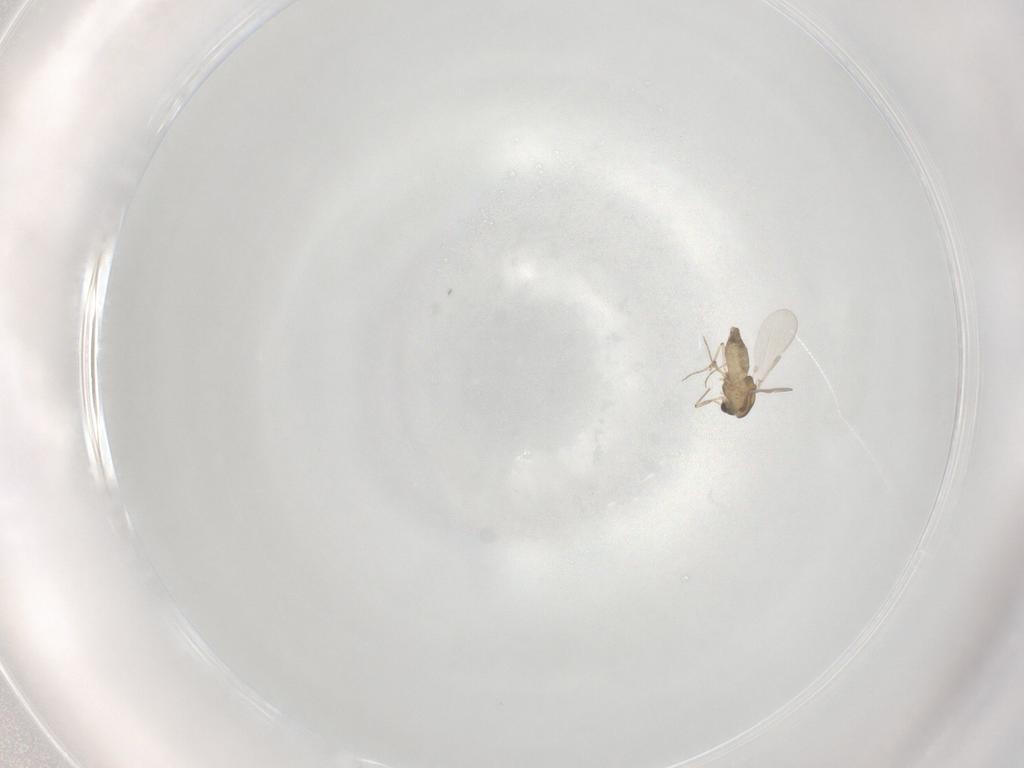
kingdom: Animalia
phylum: Arthropoda
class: Insecta
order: Diptera
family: Chironomidae
